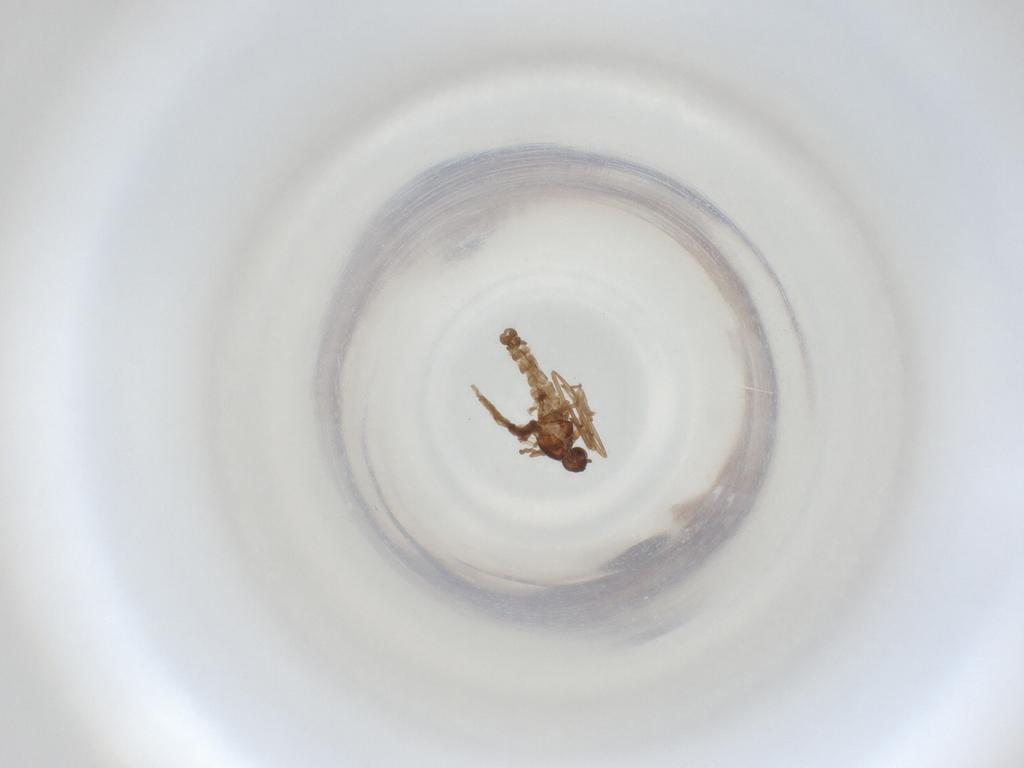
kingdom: Animalia
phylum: Arthropoda
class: Insecta
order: Diptera
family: Cecidomyiidae
